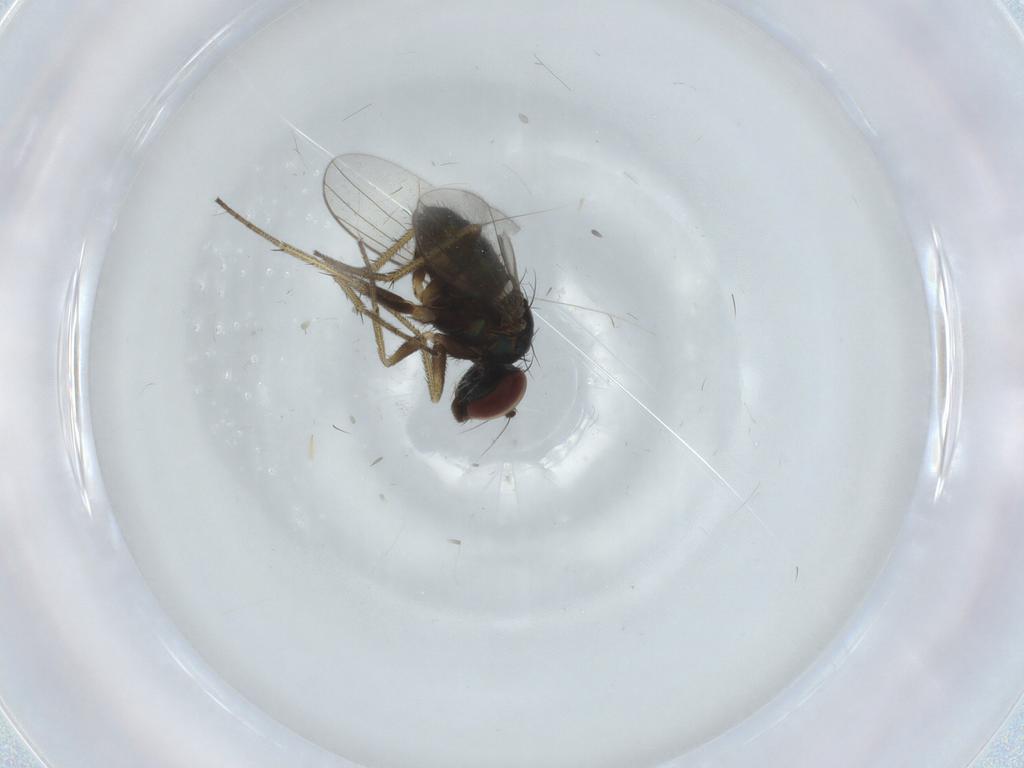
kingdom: Animalia
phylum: Arthropoda
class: Insecta
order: Diptera
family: Dolichopodidae
